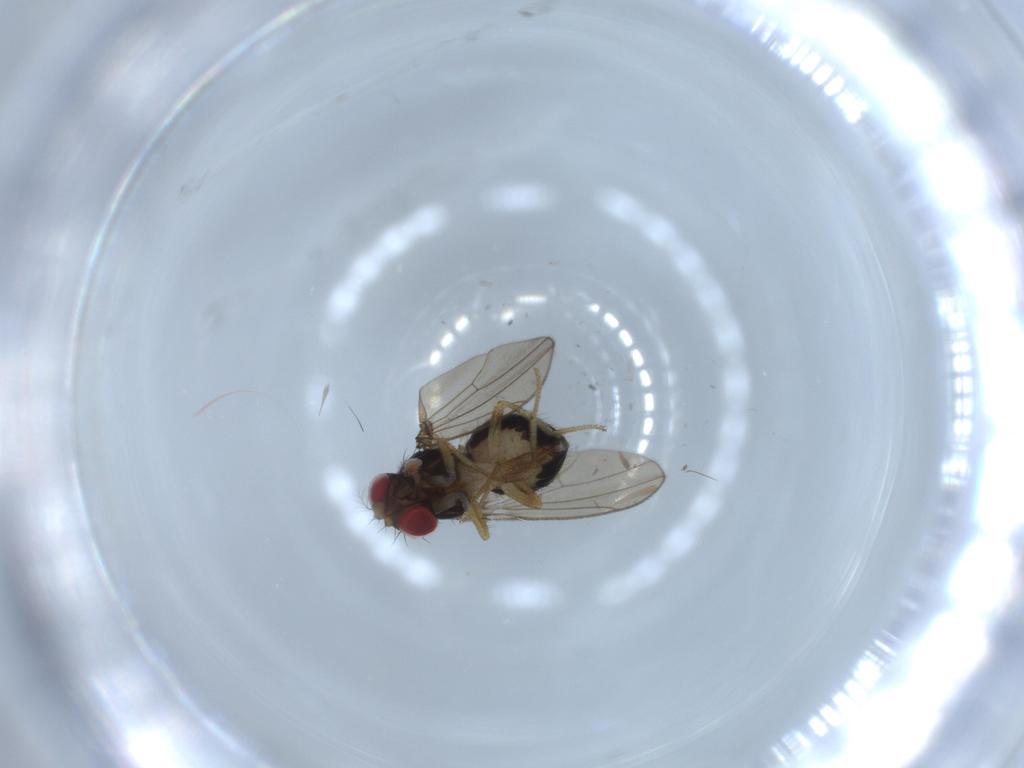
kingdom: Animalia
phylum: Arthropoda
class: Insecta
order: Diptera
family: Drosophilidae
